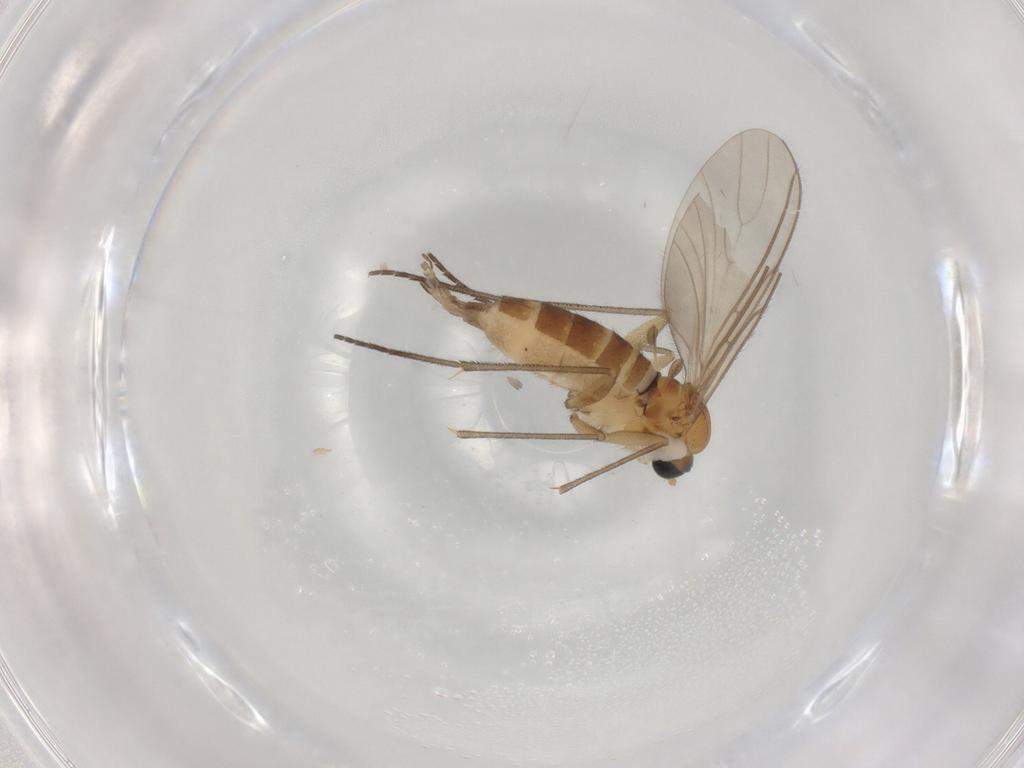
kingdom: Animalia
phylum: Arthropoda
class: Insecta
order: Diptera
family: Sciaridae
